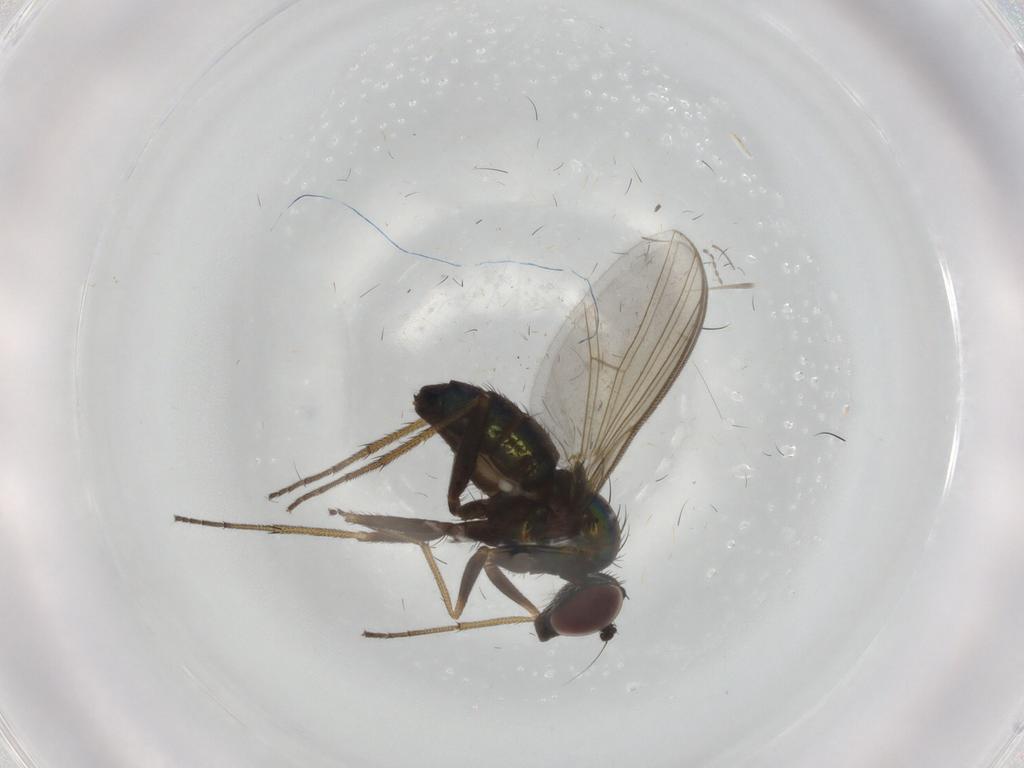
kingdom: Animalia
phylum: Arthropoda
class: Insecta
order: Diptera
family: Dolichopodidae
